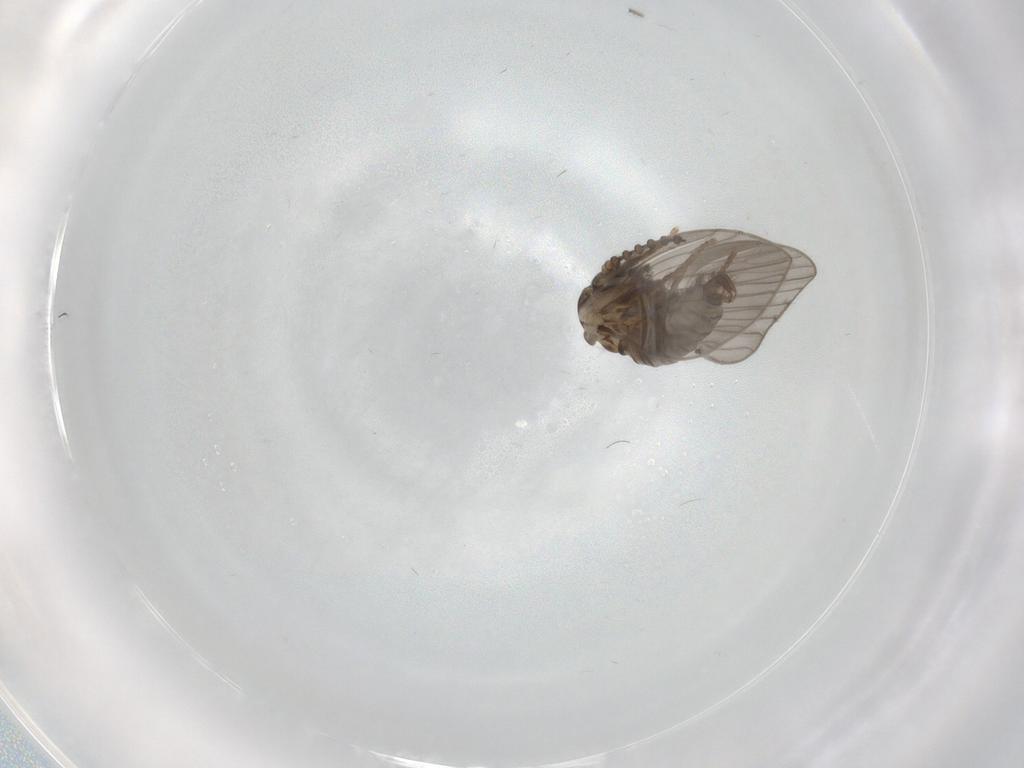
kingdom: Animalia
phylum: Arthropoda
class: Insecta
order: Diptera
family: Psychodidae
